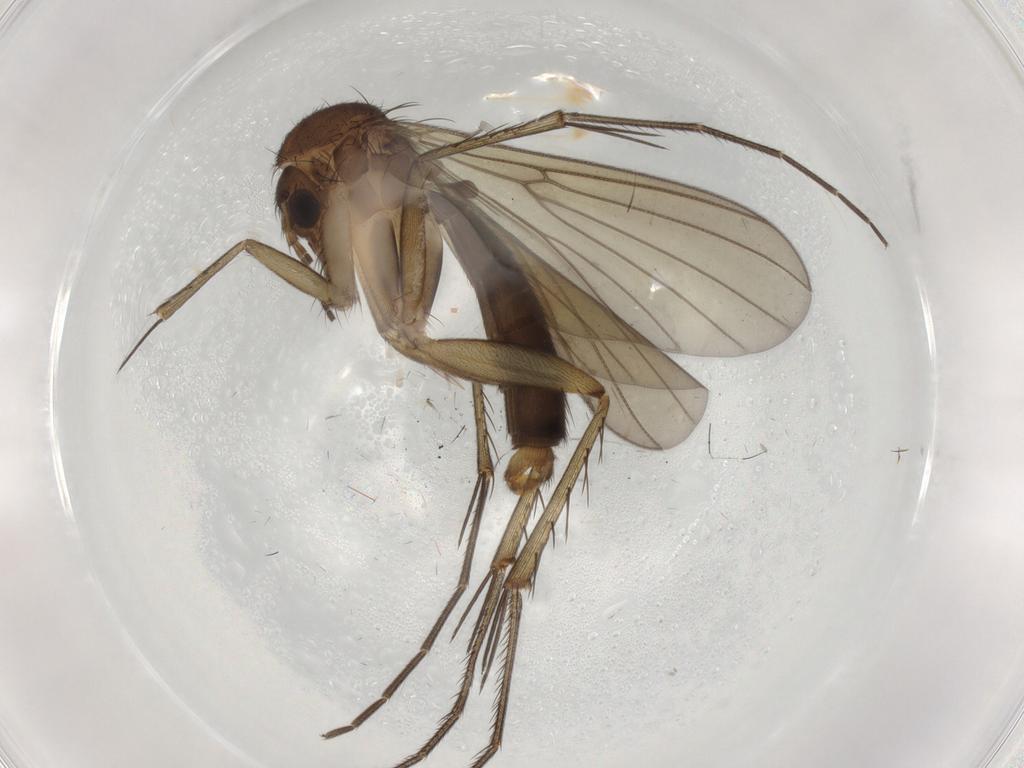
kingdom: Animalia
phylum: Arthropoda
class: Insecta
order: Diptera
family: Mycetophilidae
